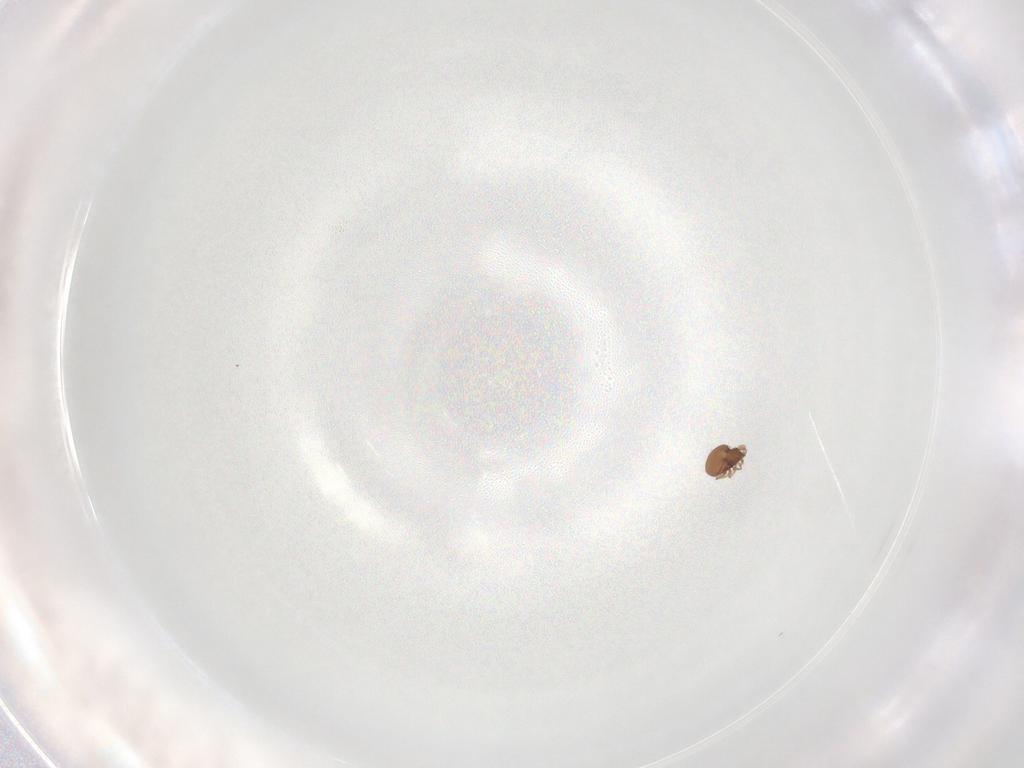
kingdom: Animalia
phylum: Arthropoda
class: Arachnida
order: Sarcoptiformes
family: Oribatulidae
